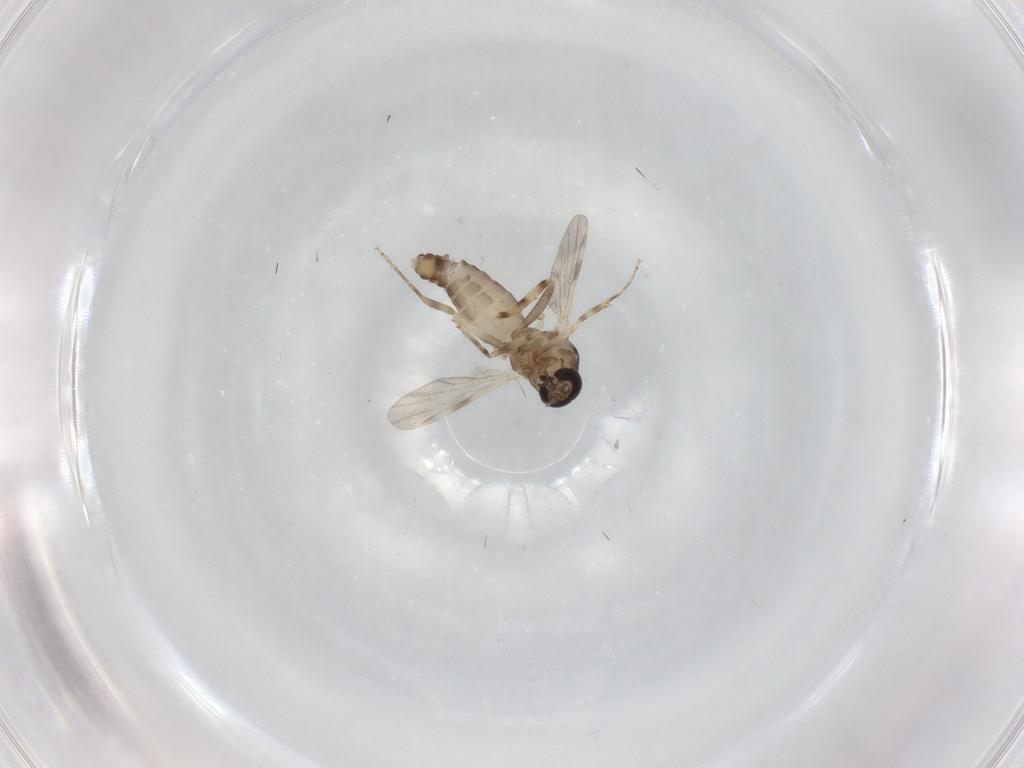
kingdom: Animalia
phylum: Arthropoda
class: Insecta
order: Diptera
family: Ceratopogonidae
